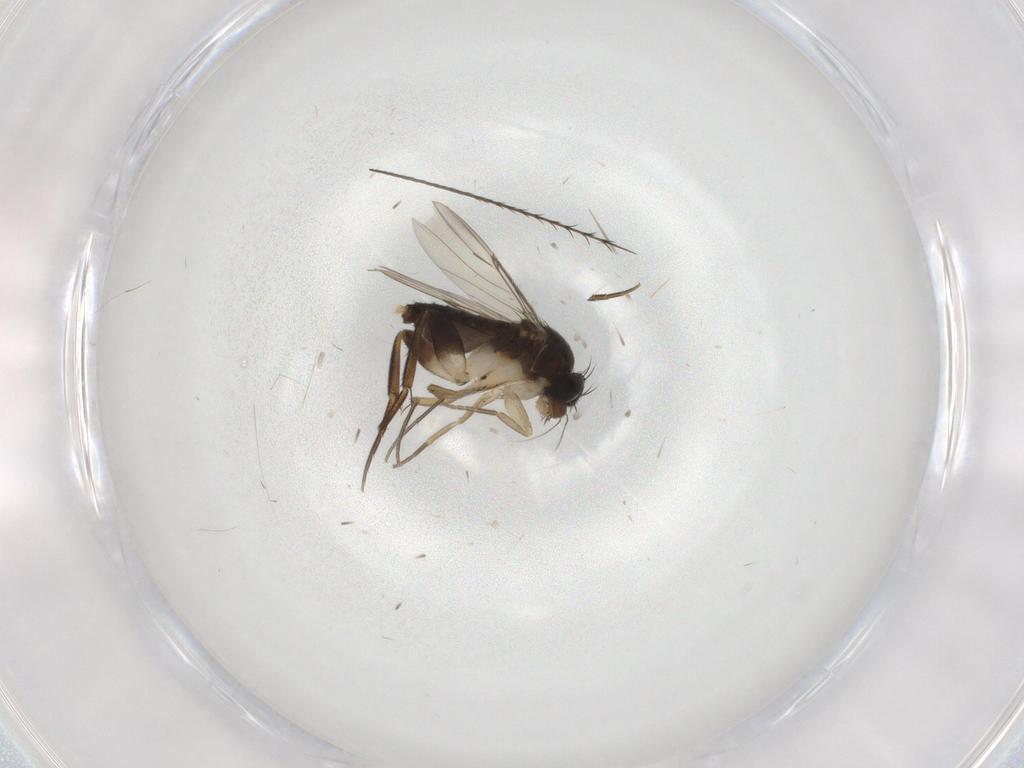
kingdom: Animalia
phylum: Arthropoda
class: Insecta
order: Diptera
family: Phoridae
